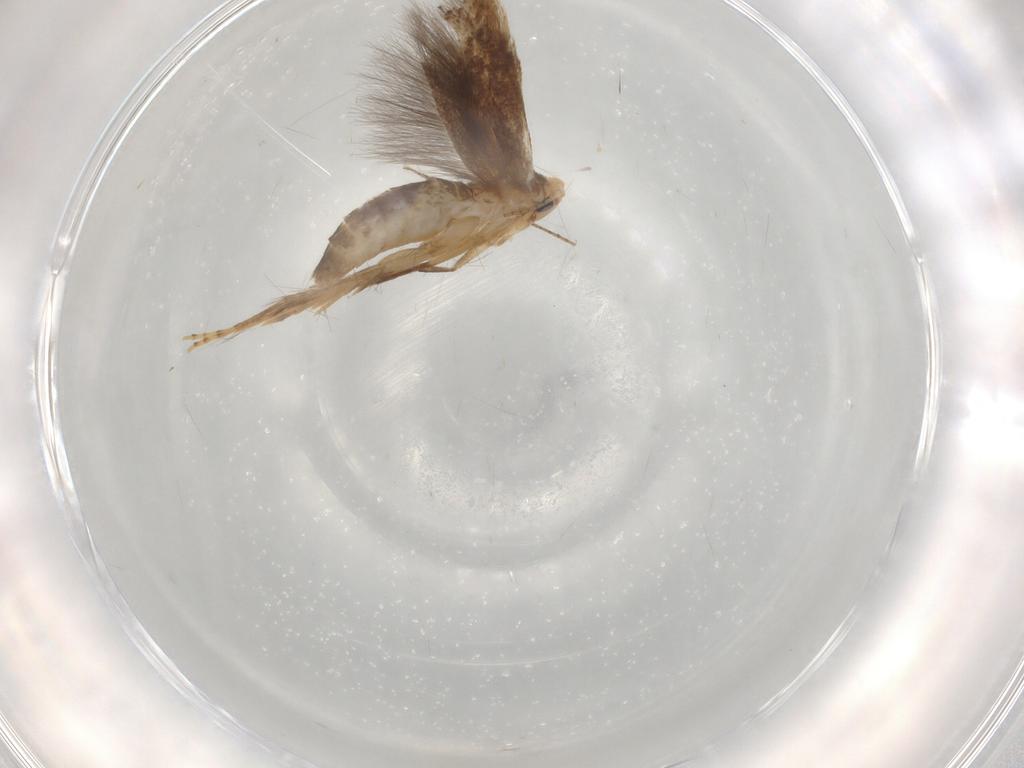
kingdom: Animalia
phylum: Arthropoda
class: Insecta
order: Lepidoptera
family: Gracillariidae
